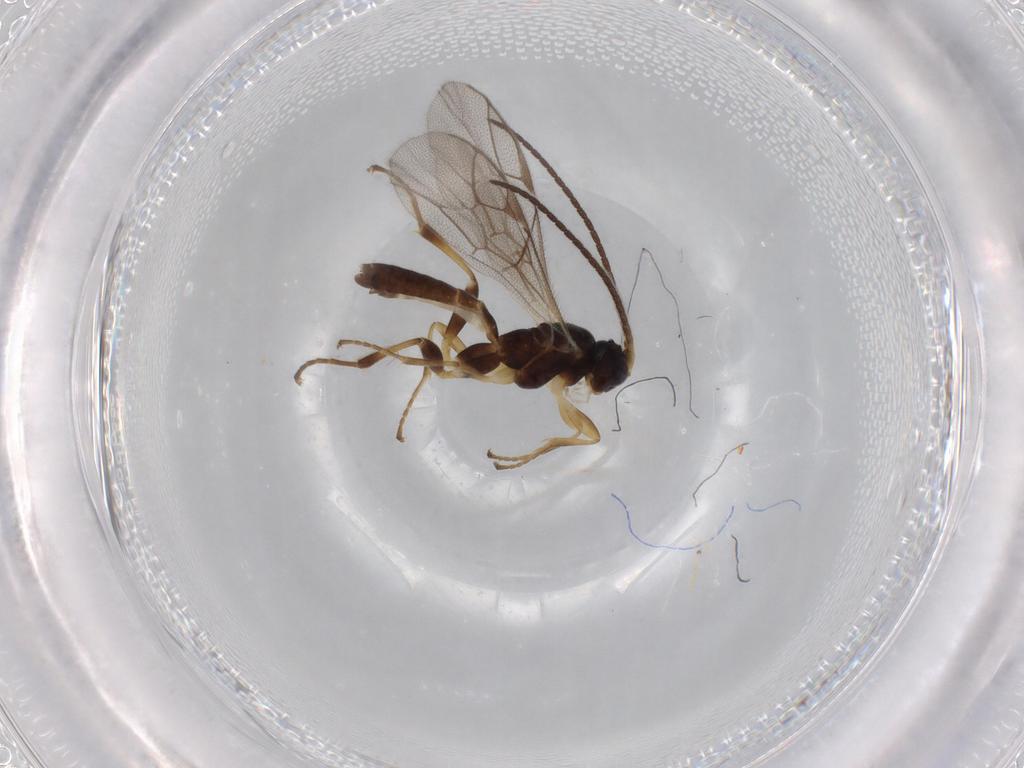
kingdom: Animalia
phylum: Arthropoda
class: Insecta
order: Hymenoptera
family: Ichneumonidae
